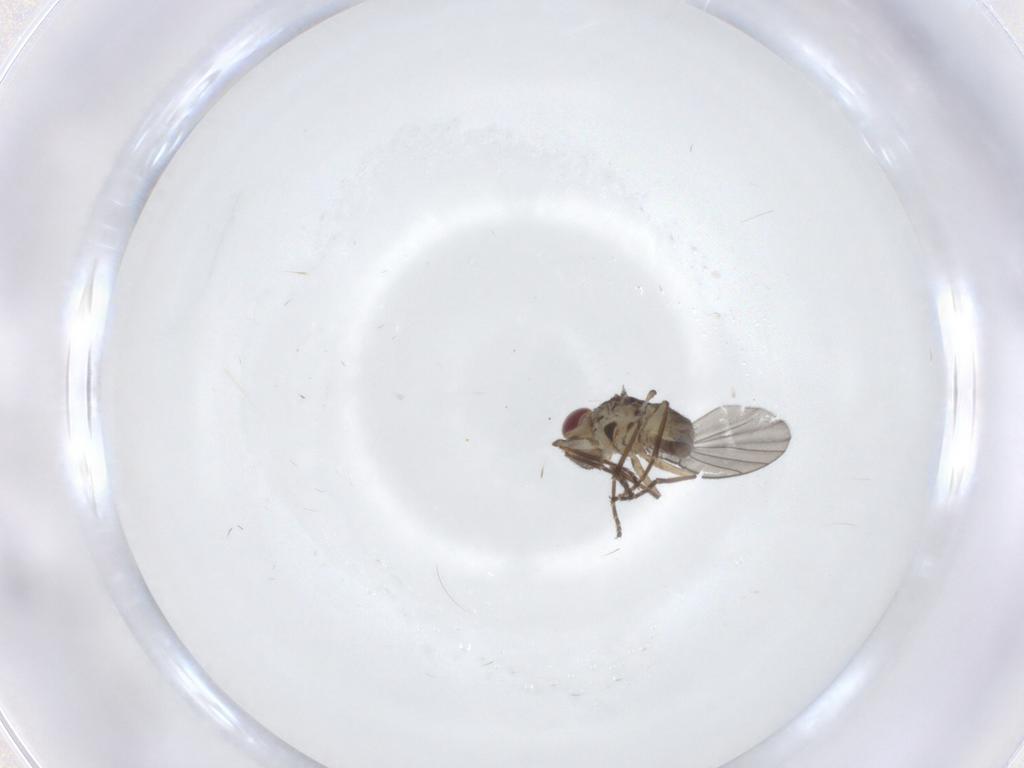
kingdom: Animalia
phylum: Arthropoda
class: Insecta
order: Diptera
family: Agromyzidae
